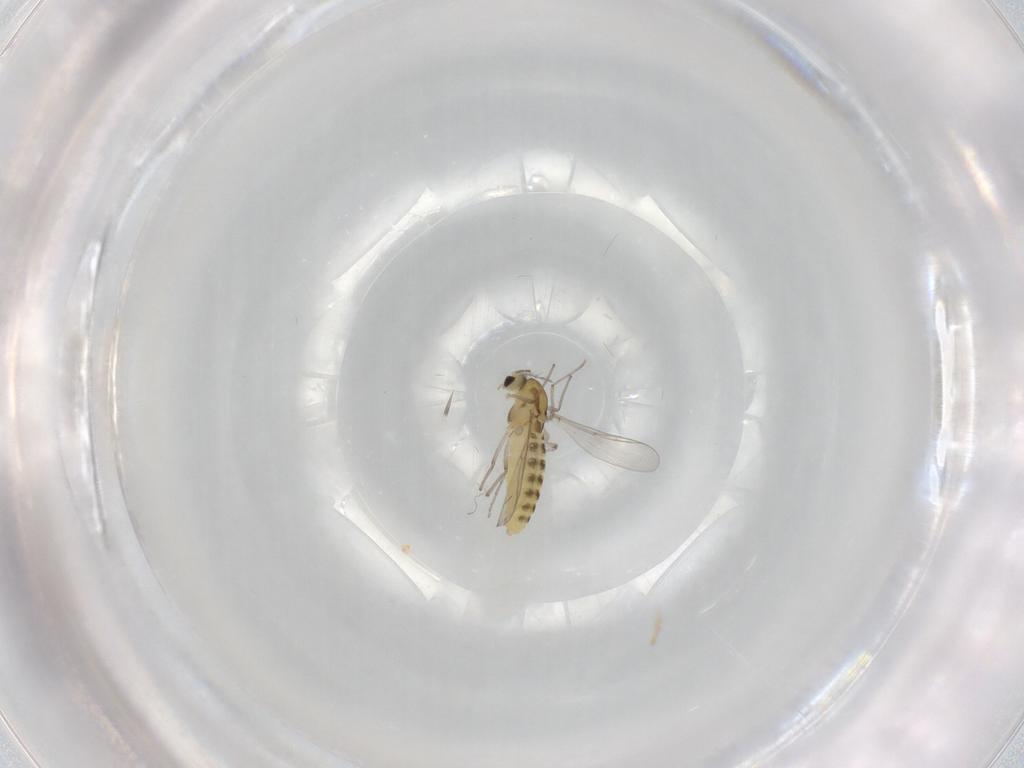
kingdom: Animalia
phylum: Arthropoda
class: Insecta
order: Diptera
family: Chironomidae
